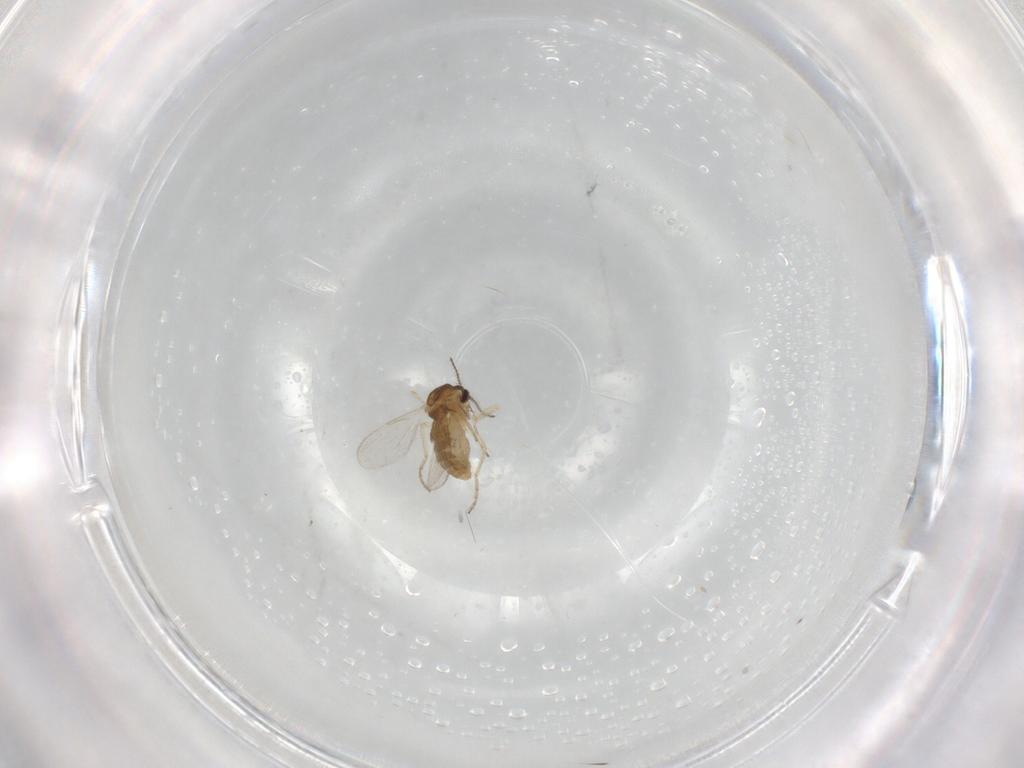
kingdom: Animalia
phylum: Arthropoda
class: Insecta
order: Diptera
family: Ceratopogonidae
